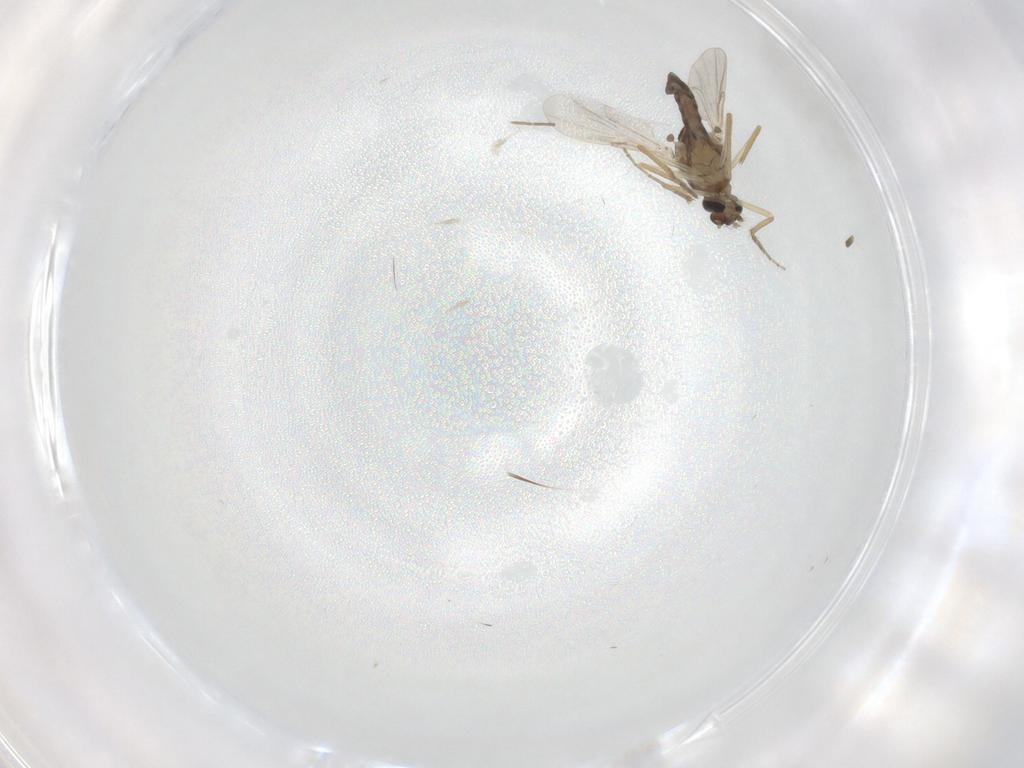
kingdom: Animalia
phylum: Arthropoda
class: Insecta
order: Diptera
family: Ceratopogonidae
